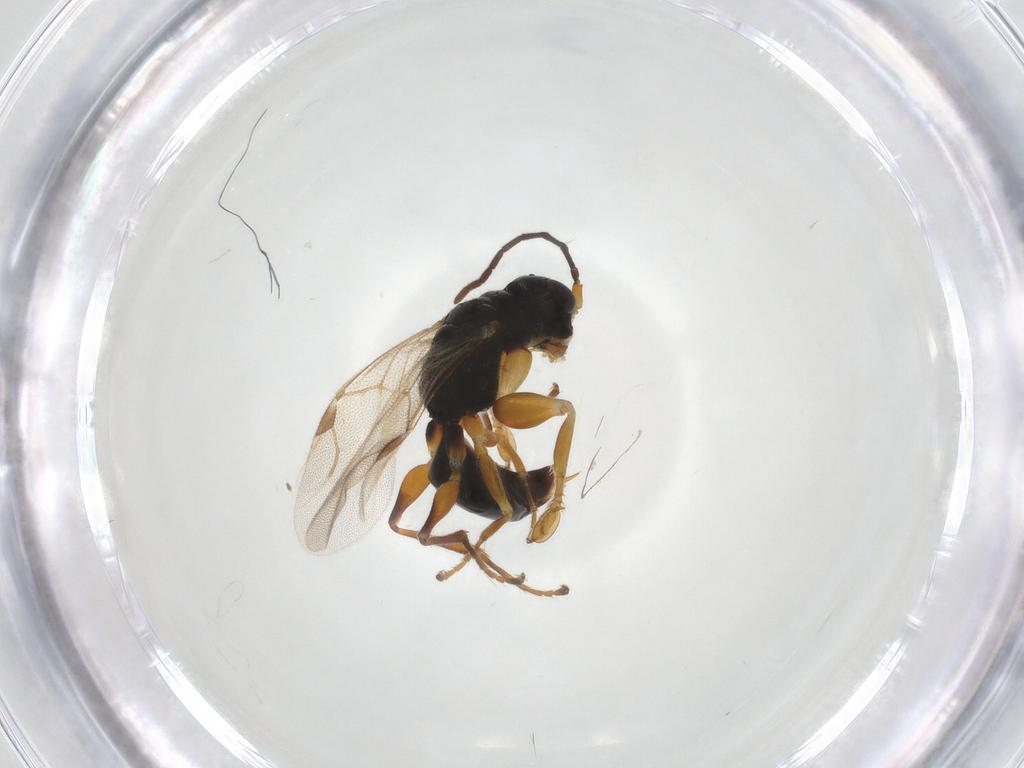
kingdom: Animalia
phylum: Arthropoda
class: Insecta
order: Hymenoptera
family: Dryinidae
